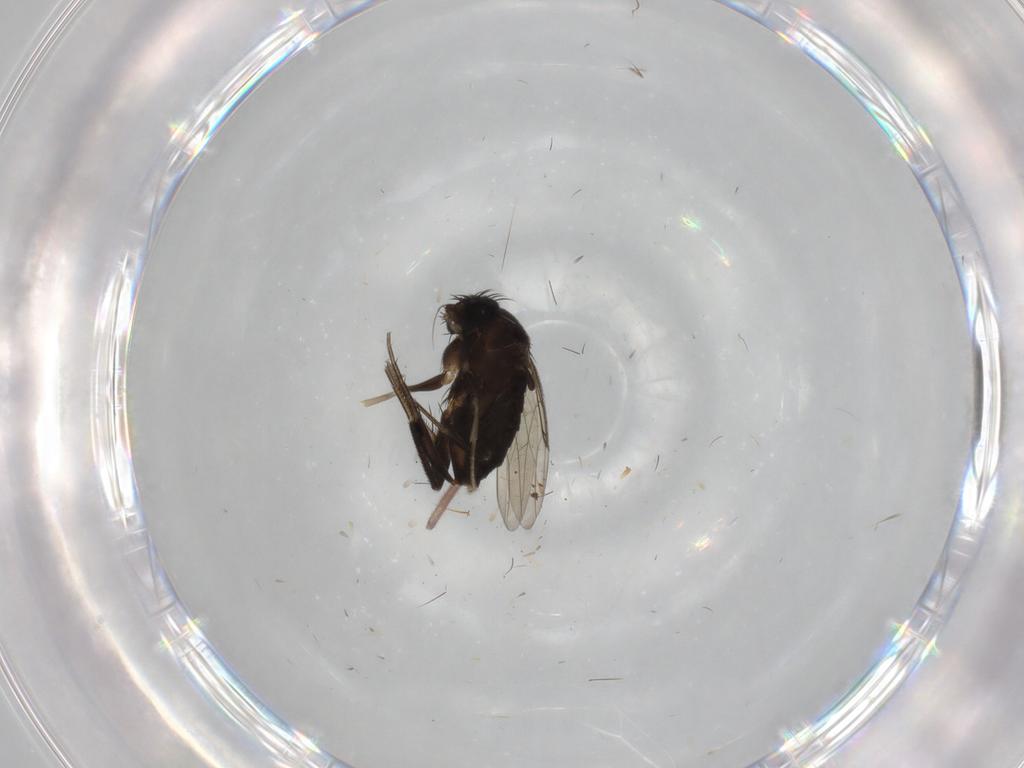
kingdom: Animalia
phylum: Arthropoda
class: Insecta
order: Diptera
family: Phoridae
